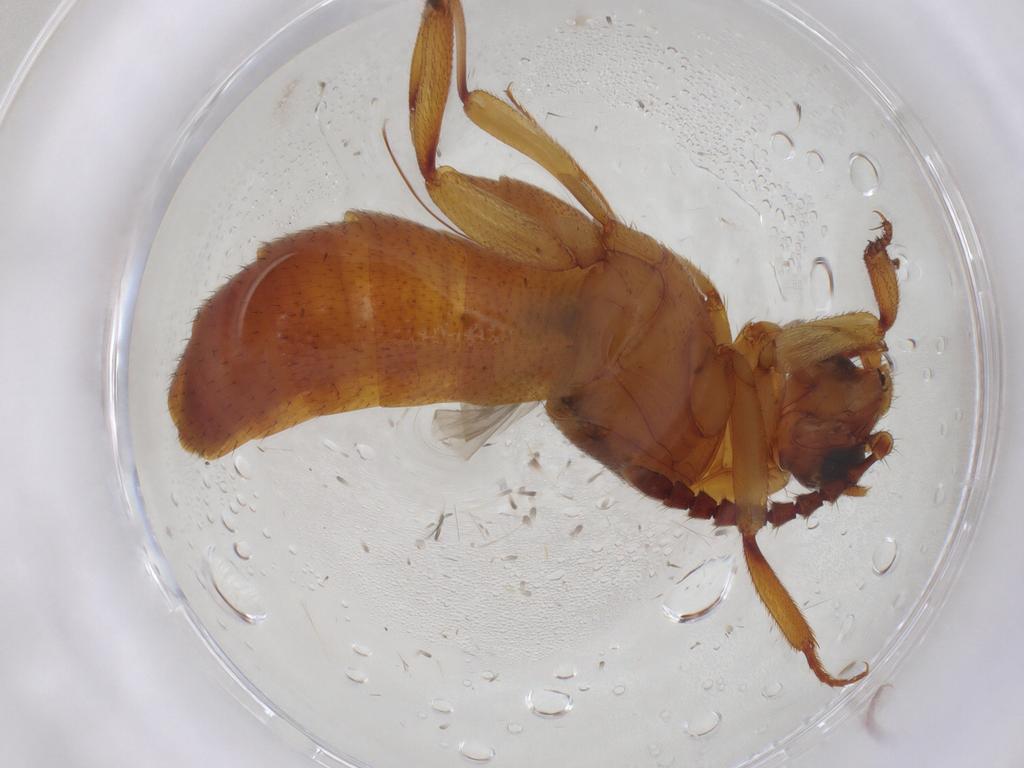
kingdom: Animalia
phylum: Arthropoda
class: Insecta
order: Coleoptera
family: Staphylinidae
